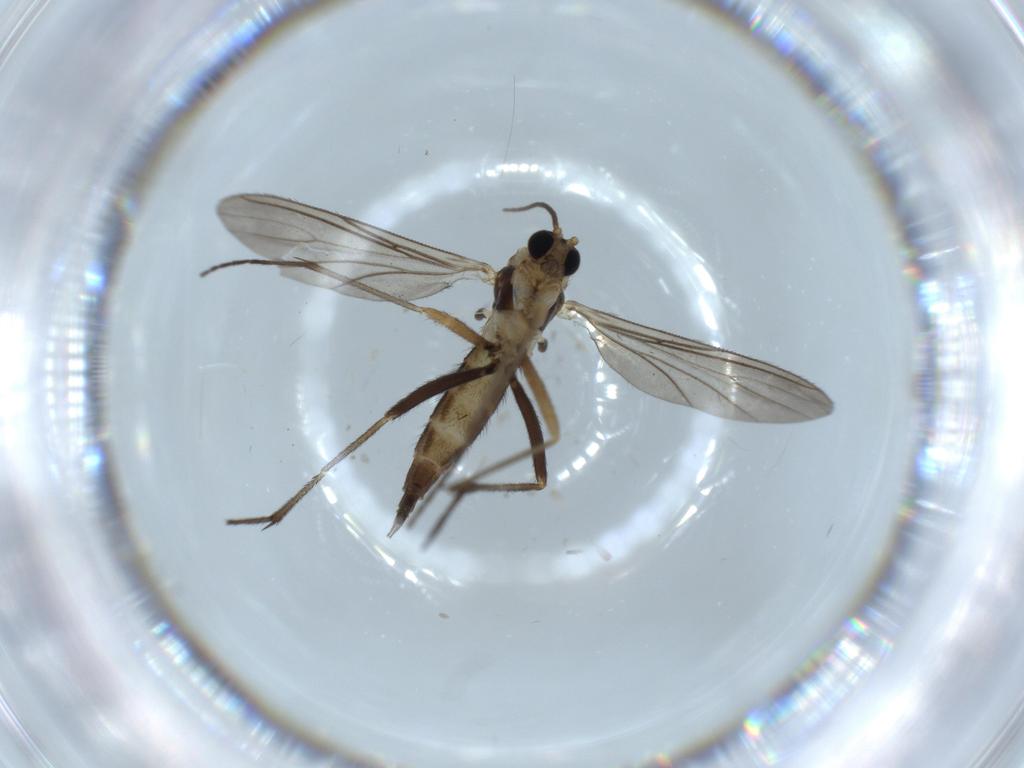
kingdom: Animalia
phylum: Arthropoda
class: Insecta
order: Diptera
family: Sciaridae
